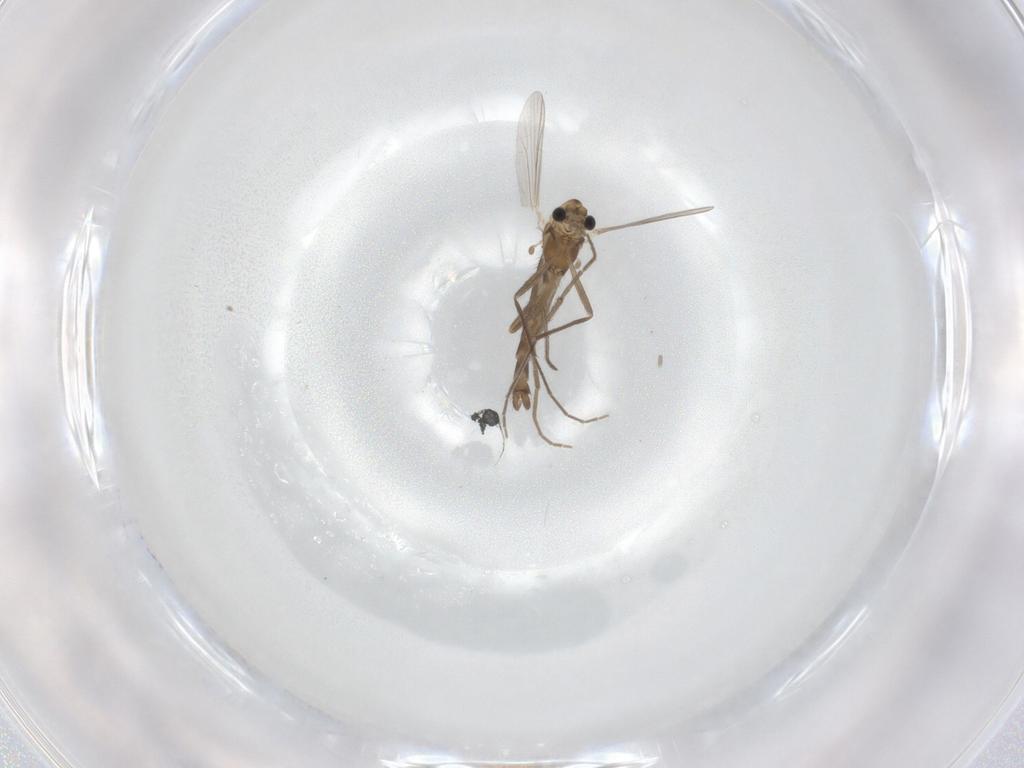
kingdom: Animalia
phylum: Arthropoda
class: Insecta
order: Diptera
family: Chironomidae
